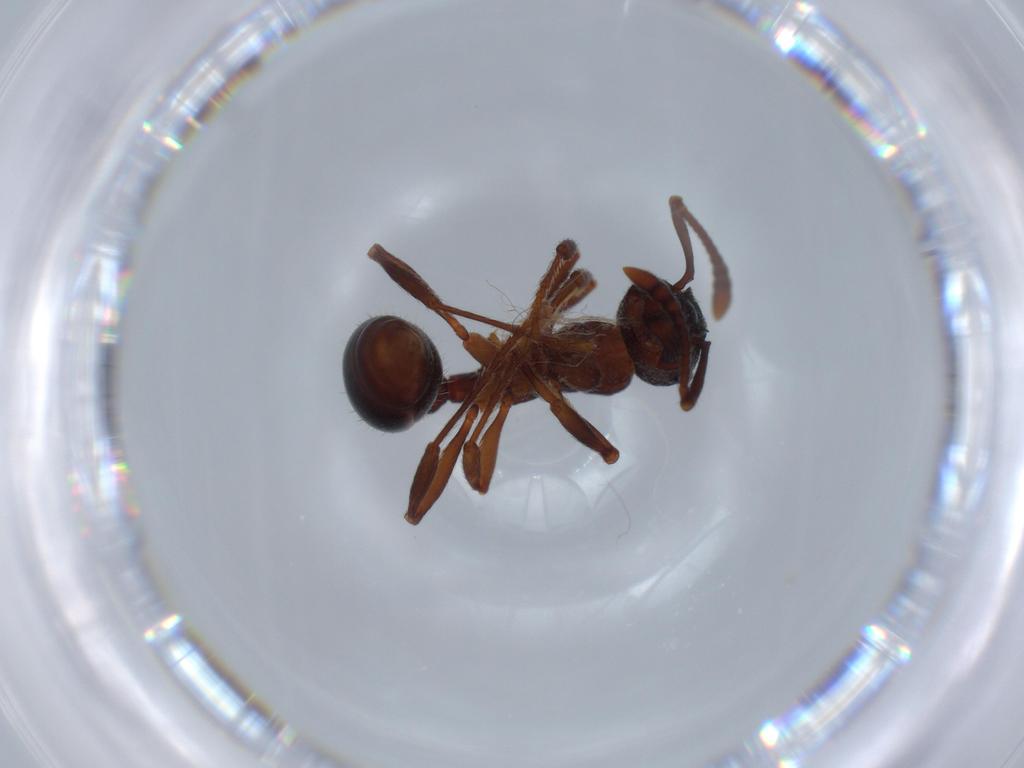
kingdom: Animalia
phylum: Arthropoda
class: Insecta
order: Hymenoptera
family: Formicidae
